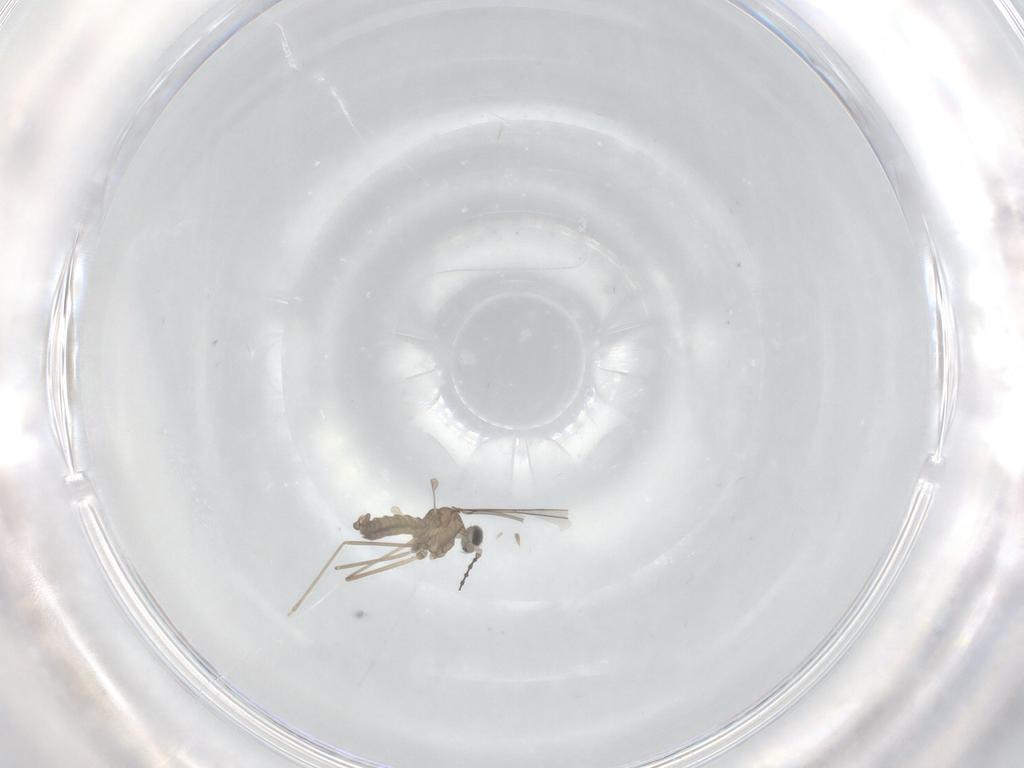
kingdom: Animalia
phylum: Arthropoda
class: Insecta
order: Diptera
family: Cecidomyiidae
